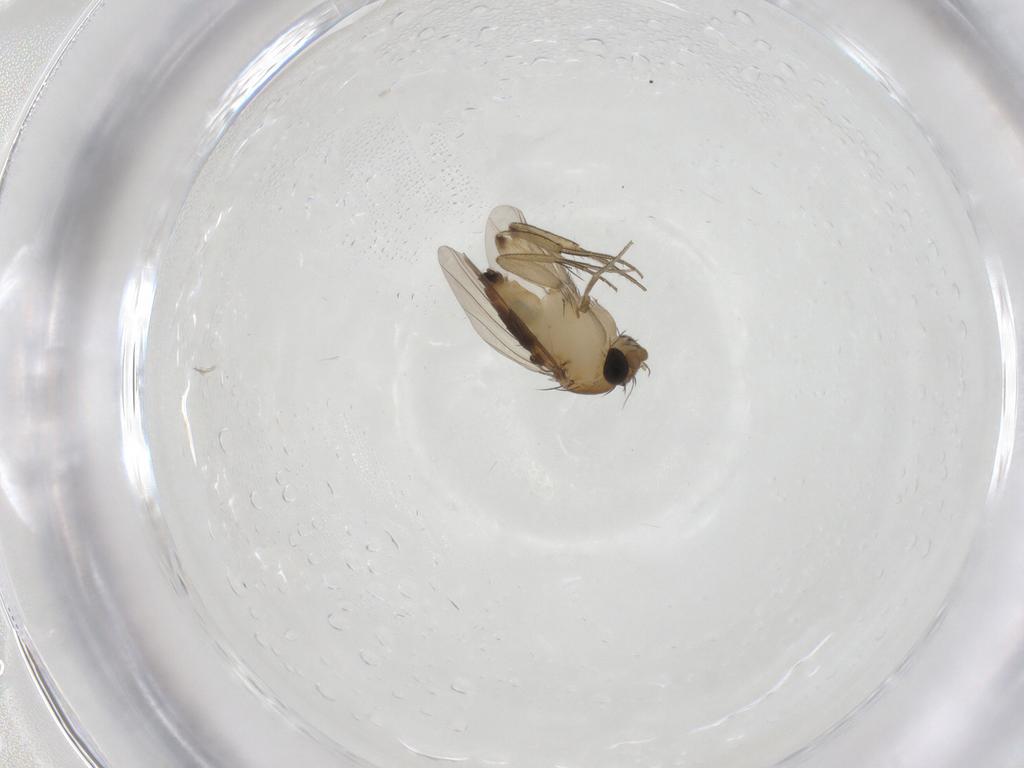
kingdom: Animalia
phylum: Arthropoda
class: Insecta
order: Diptera
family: Phoridae
